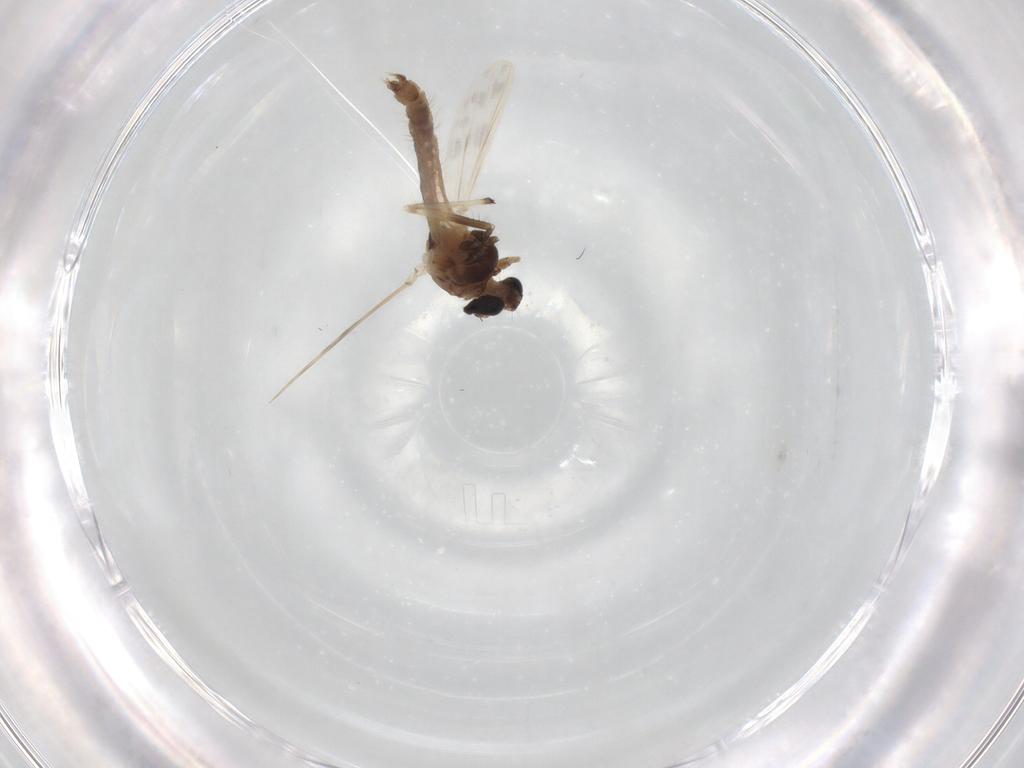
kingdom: Animalia
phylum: Arthropoda
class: Insecta
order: Diptera
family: Chironomidae
